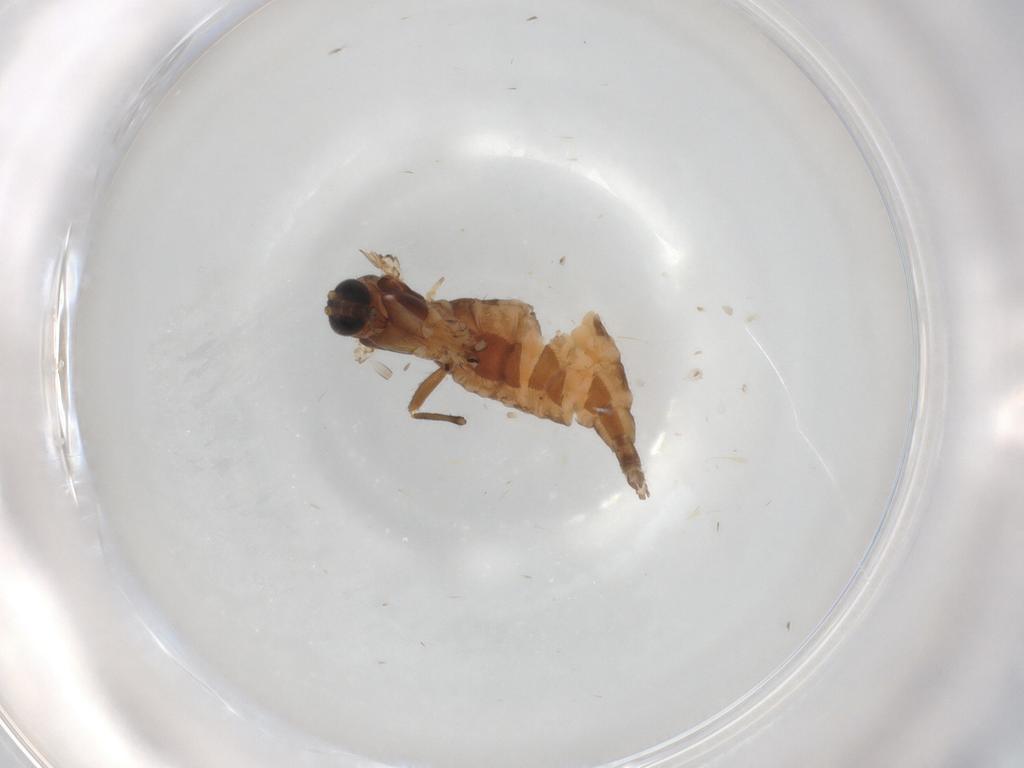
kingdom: Animalia
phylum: Arthropoda
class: Insecta
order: Diptera
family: Sciaridae
